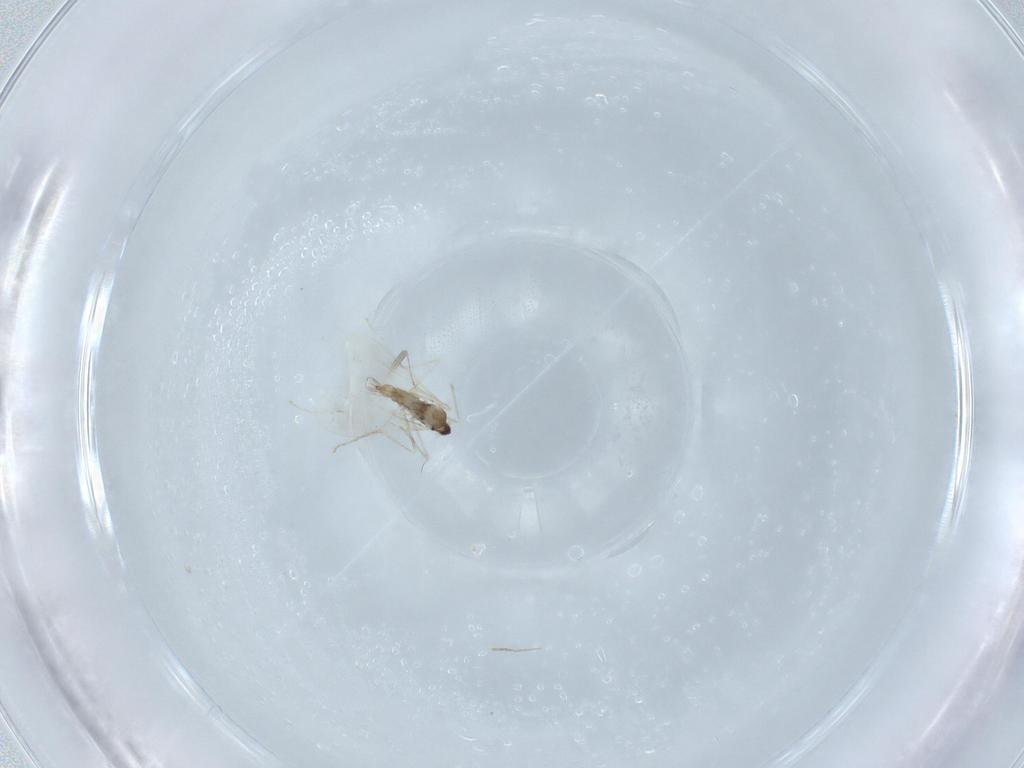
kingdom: Animalia
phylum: Arthropoda
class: Insecta
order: Diptera
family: Cecidomyiidae
